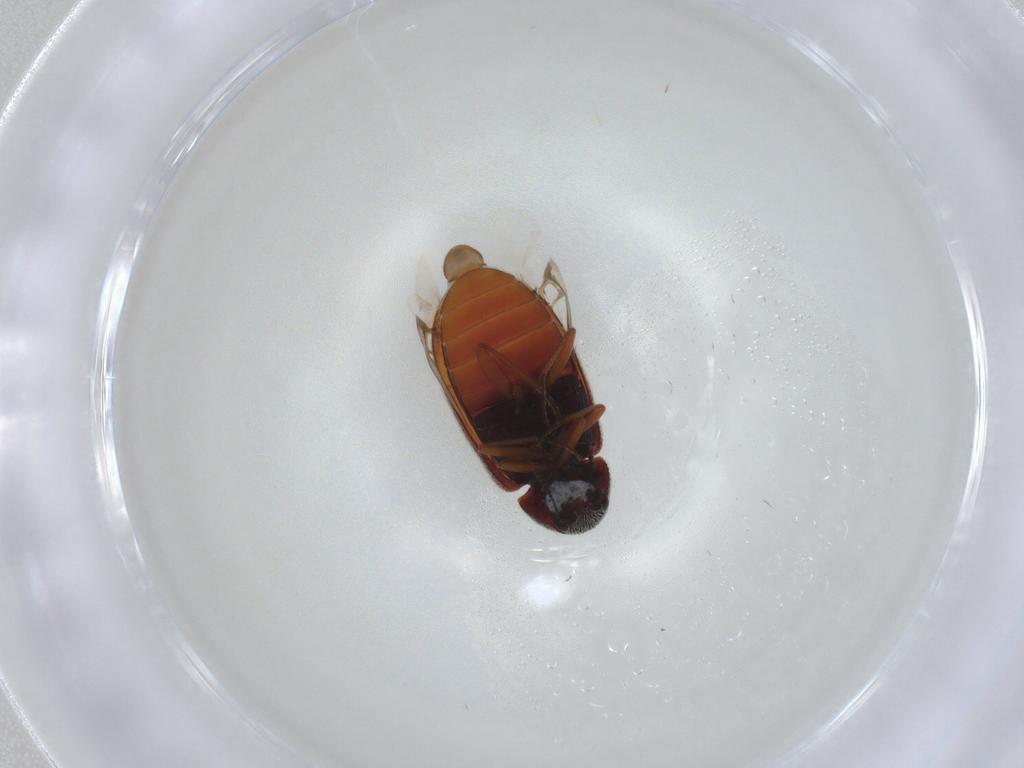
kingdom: Animalia
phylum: Arthropoda
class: Insecta
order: Coleoptera
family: Rhadalidae
